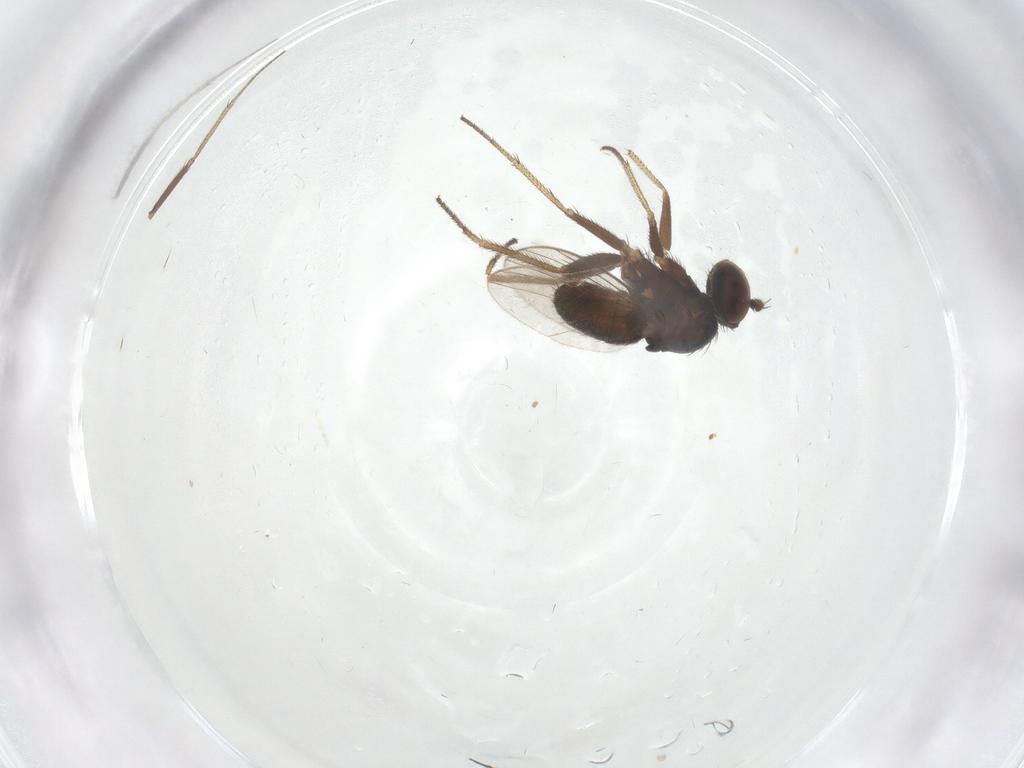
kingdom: Animalia
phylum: Arthropoda
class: Insecta
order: Diptera
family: Dolichopodidae
